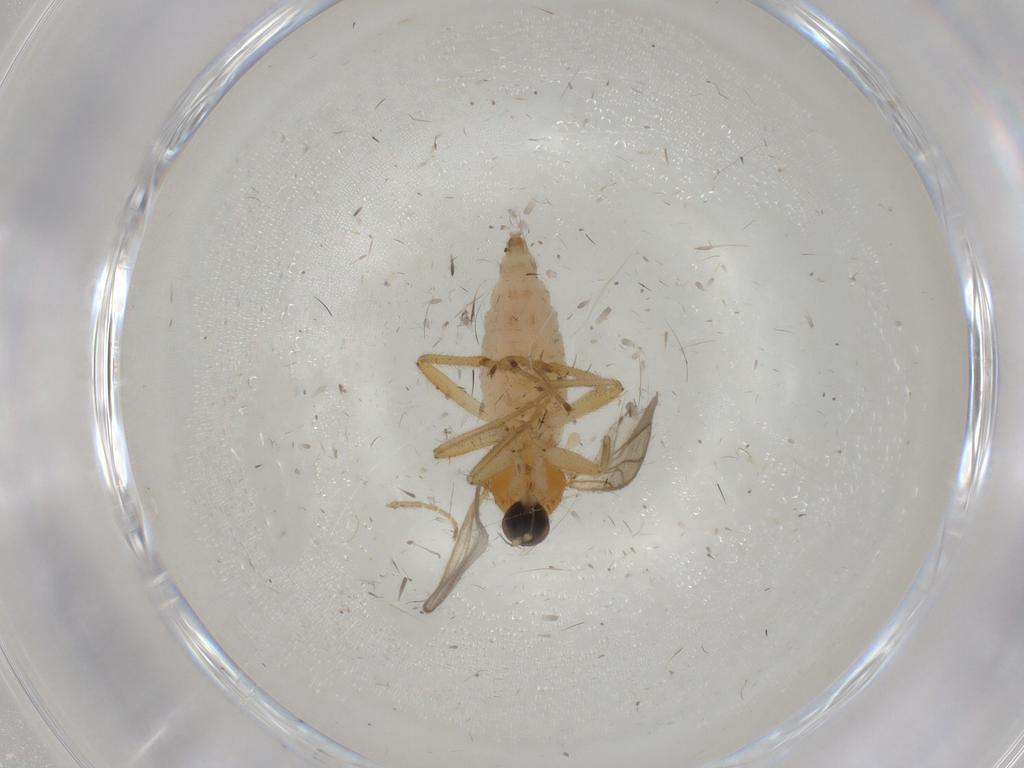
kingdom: Animalia
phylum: Arthropoda
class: Insecta
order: Diptera
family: Hybotidae
